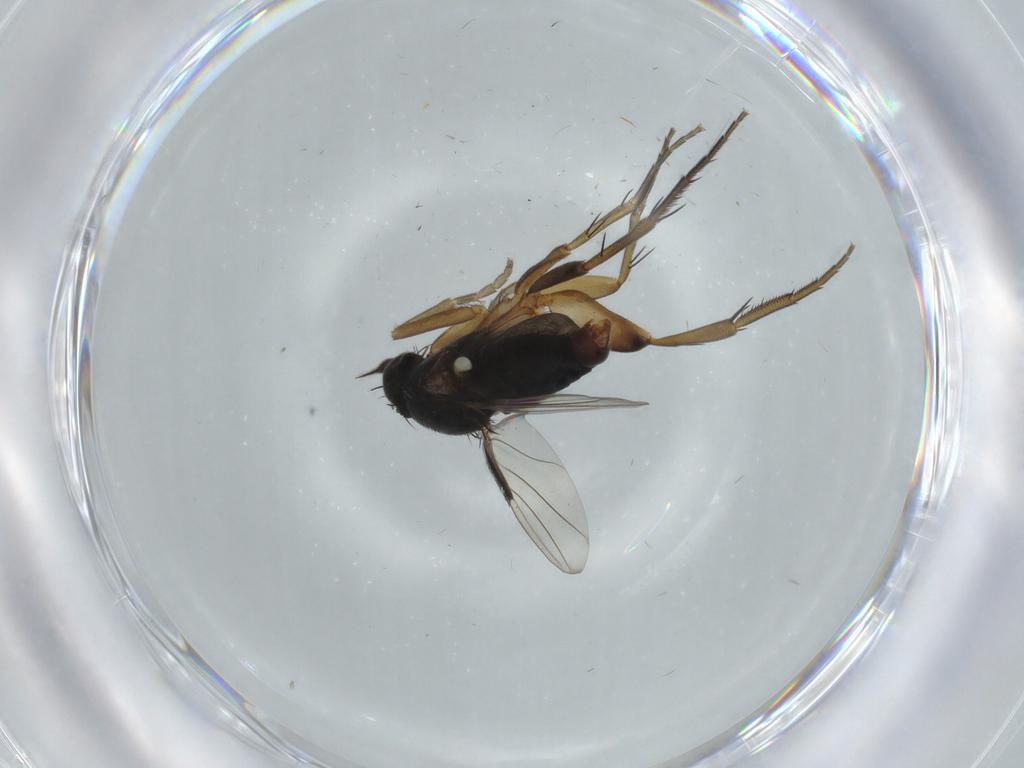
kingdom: Animalia
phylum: Arthropoda
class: Insecta
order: Diptera
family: Phoridae
